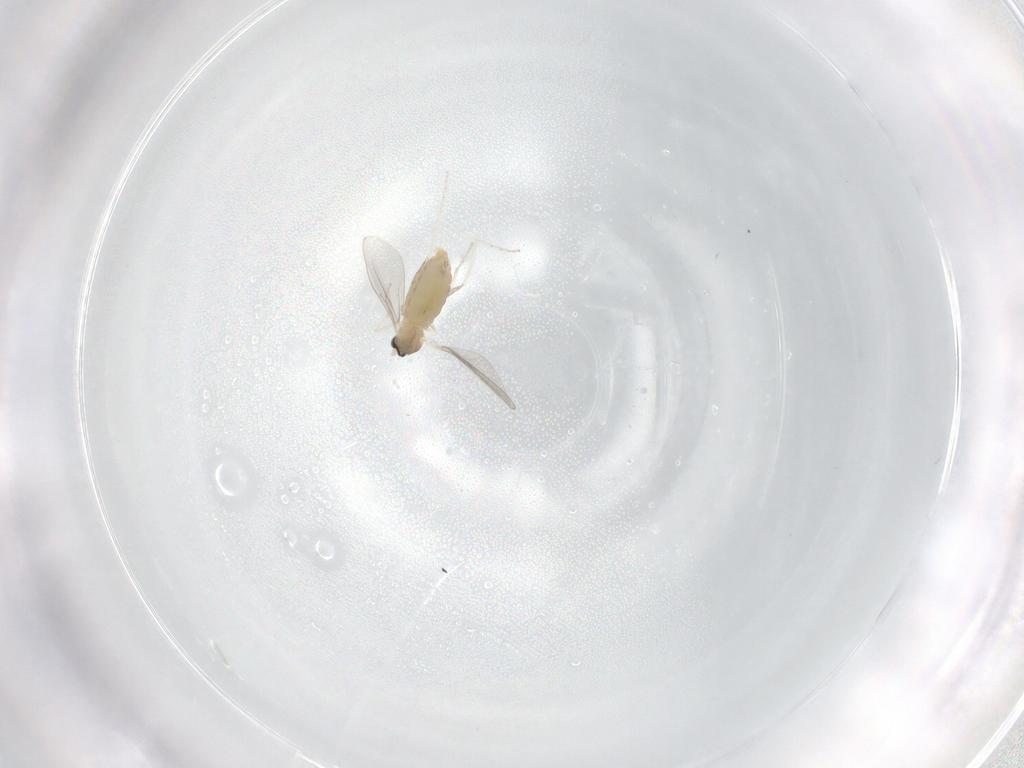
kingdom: Animalia
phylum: Arthropoda
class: Insecta
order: Diptera
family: Cecidomyiidae
